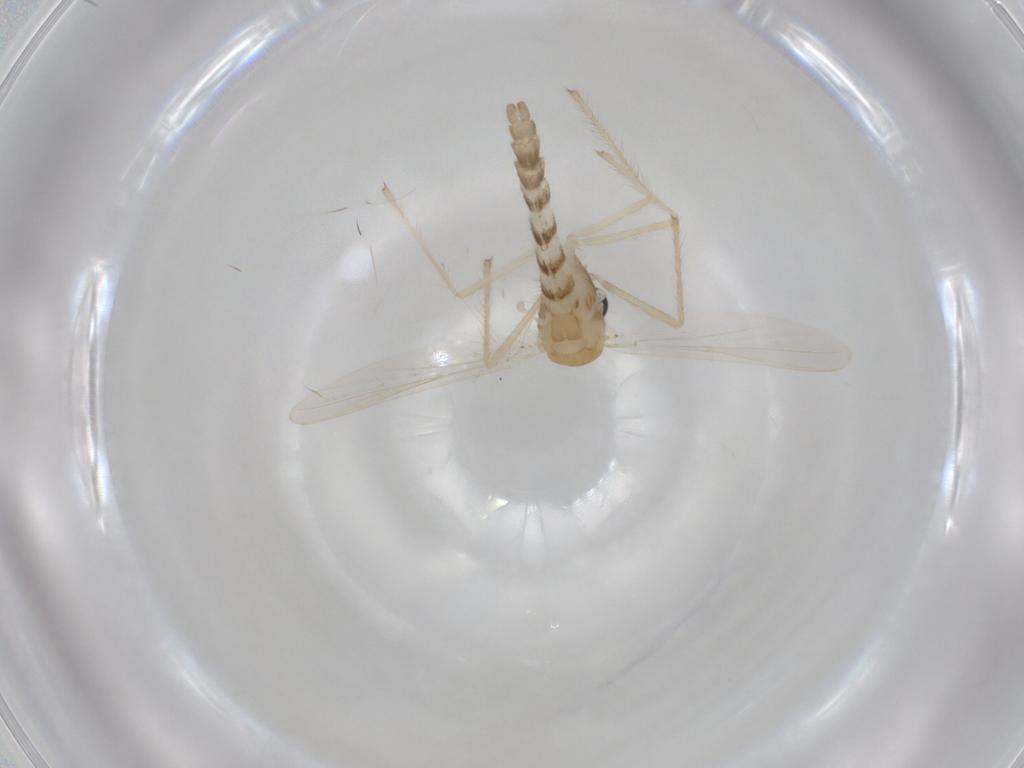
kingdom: Animalia
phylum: Arthropoda
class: Insecta
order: Diptera
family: Chironomidae
